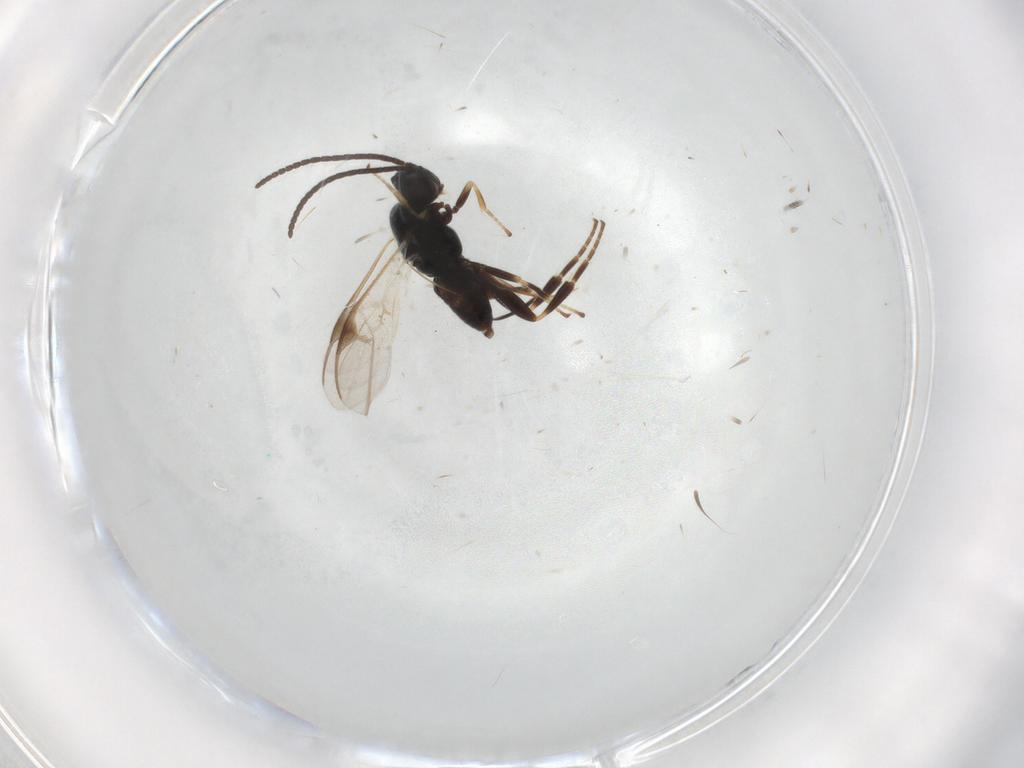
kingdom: Animalia
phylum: Arthropoda
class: Insecta
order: Hymenoptera
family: Braconidae
